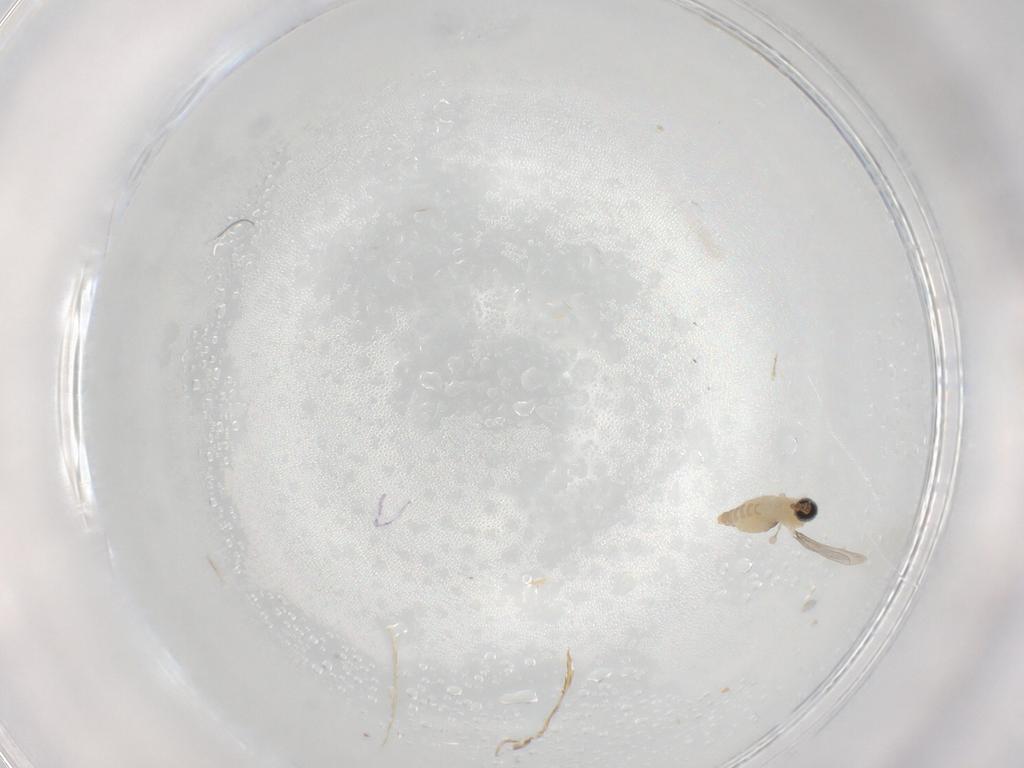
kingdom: Animalia
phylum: Arthropoda
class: Insecta
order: Diptera
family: Cecidomyiidae
